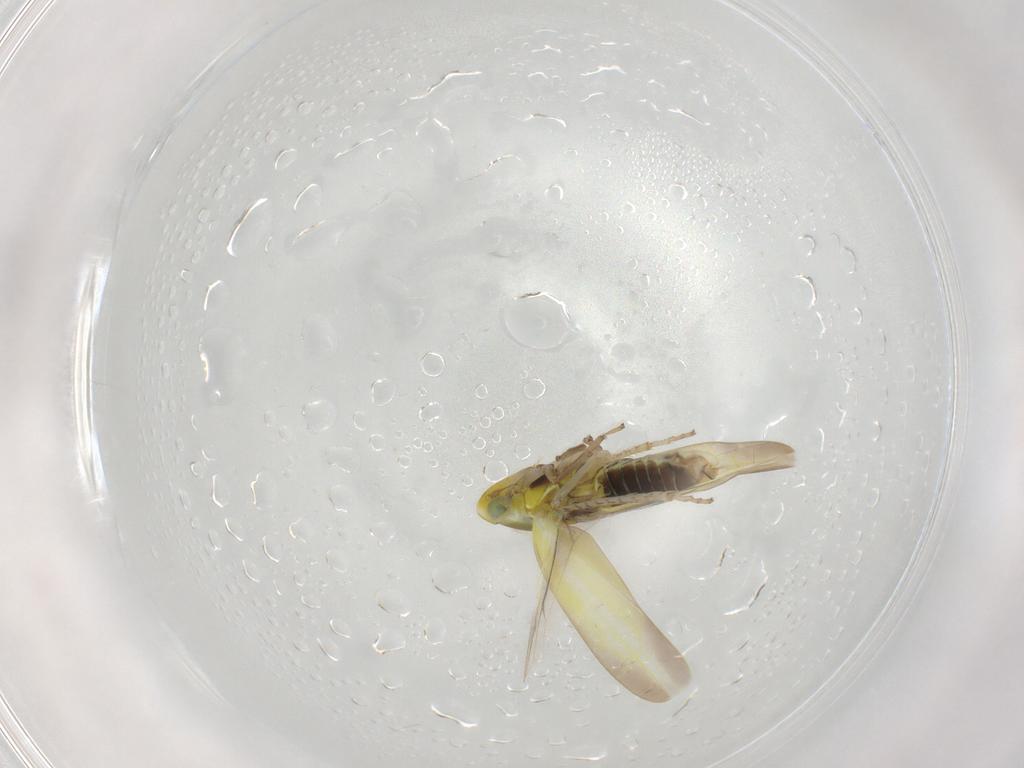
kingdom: Animalia
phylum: Arthropoda
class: Insecta
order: Hemiptera
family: Cicadellidae
